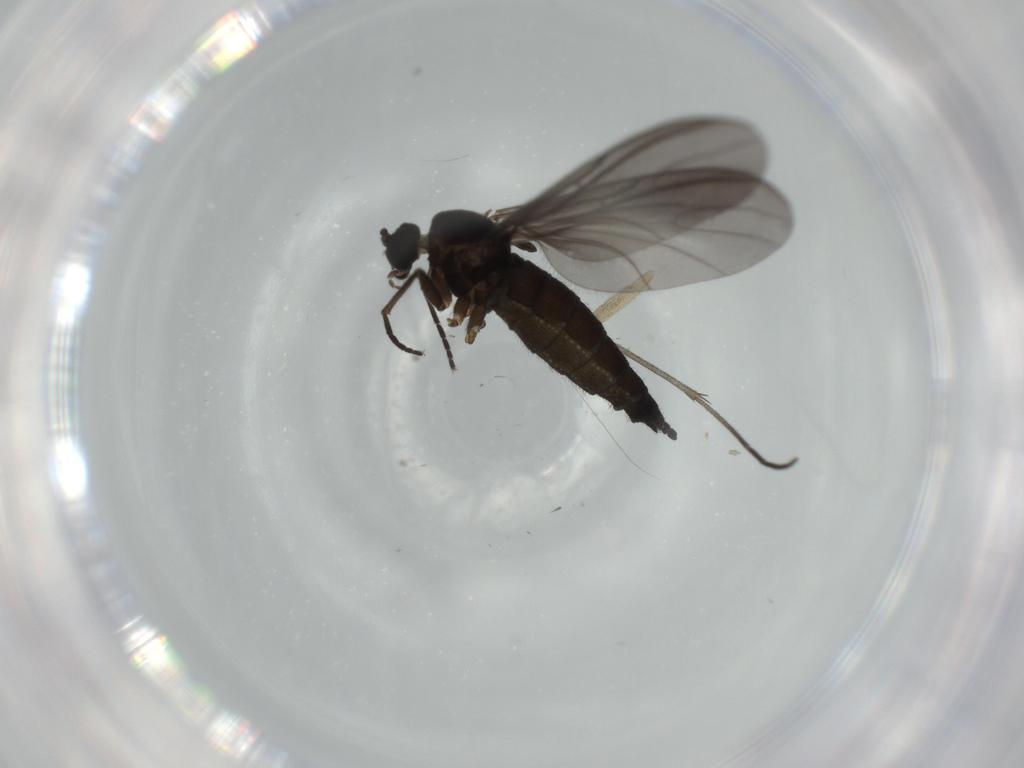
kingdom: Animalia
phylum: Arthropoda
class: Insecta
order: Diptera
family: Sciaridae
